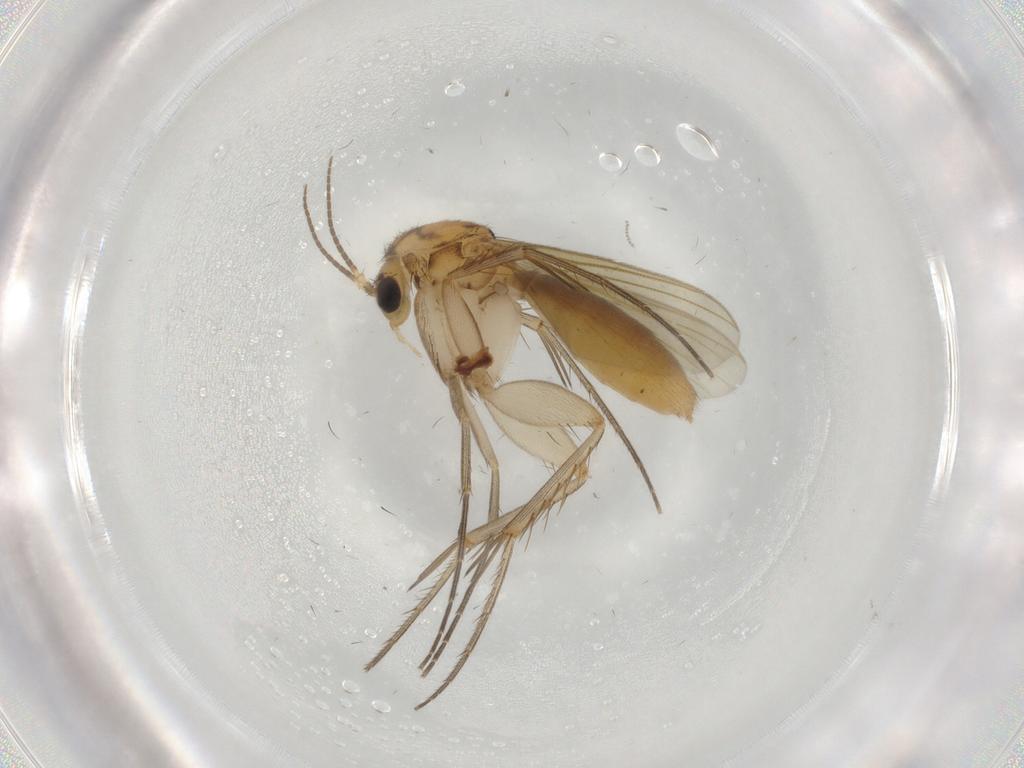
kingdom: Animalia
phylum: Arthropoda
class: Insecta
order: Diptera
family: Mycetophilidae
